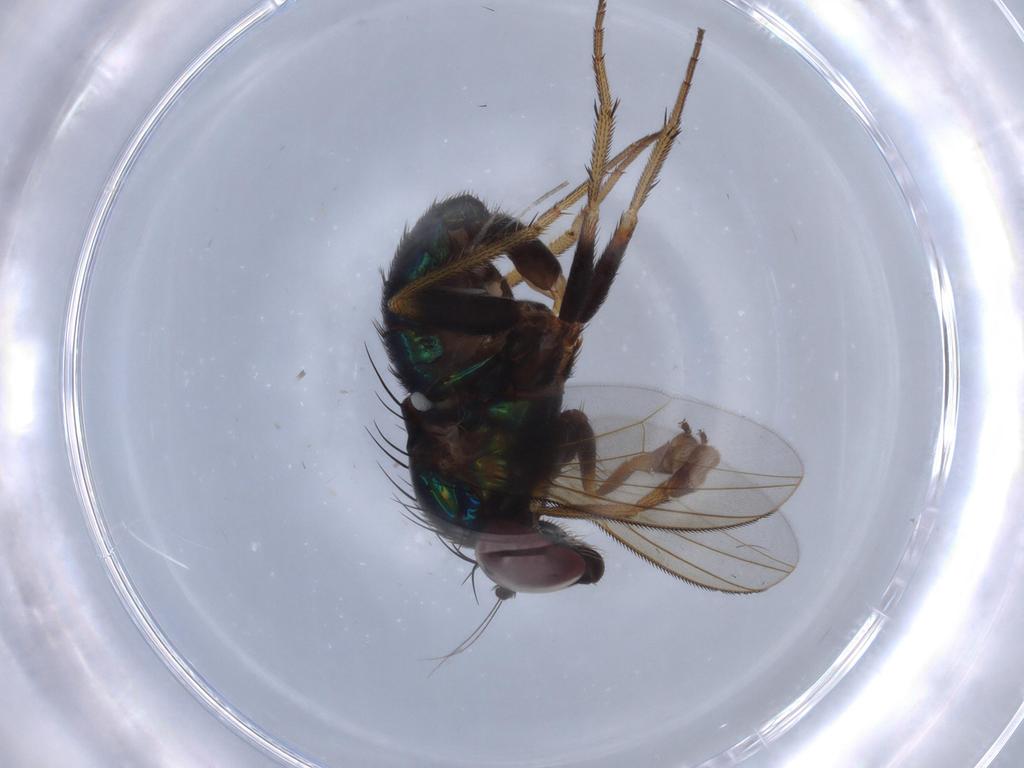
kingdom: Animalia
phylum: Arthropoda
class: Insecta
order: Diptera
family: Dolichopodidae
